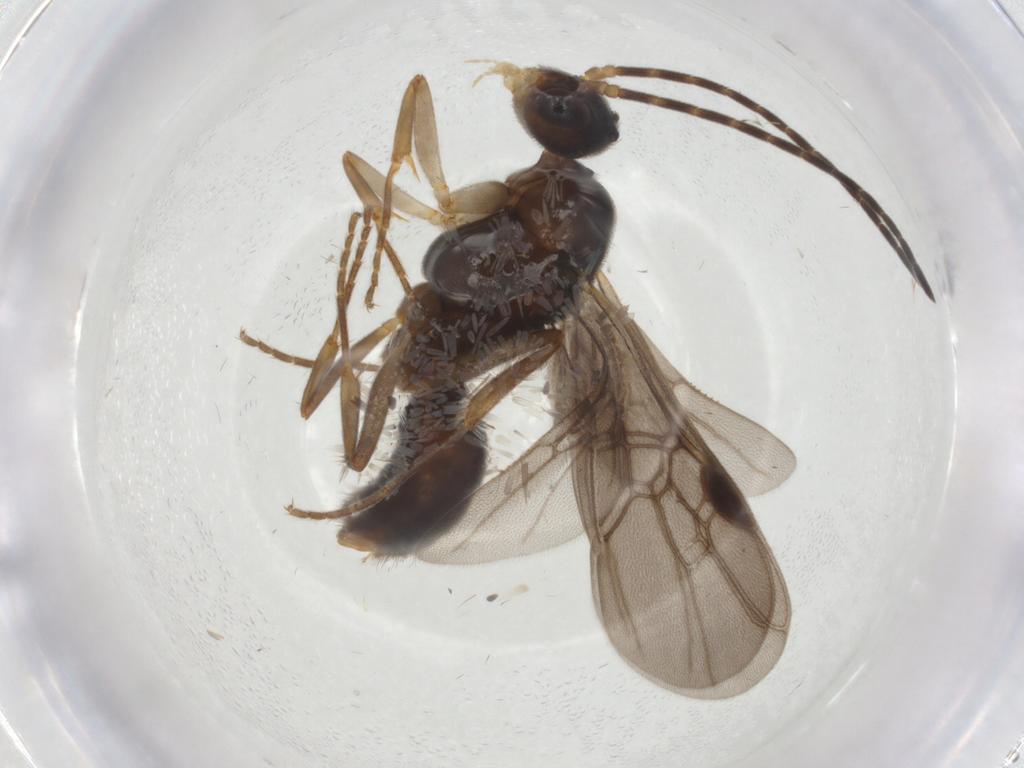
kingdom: Animalia
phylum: Arthropoda
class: Insecta
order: Hymenoptera
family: Formicidae
